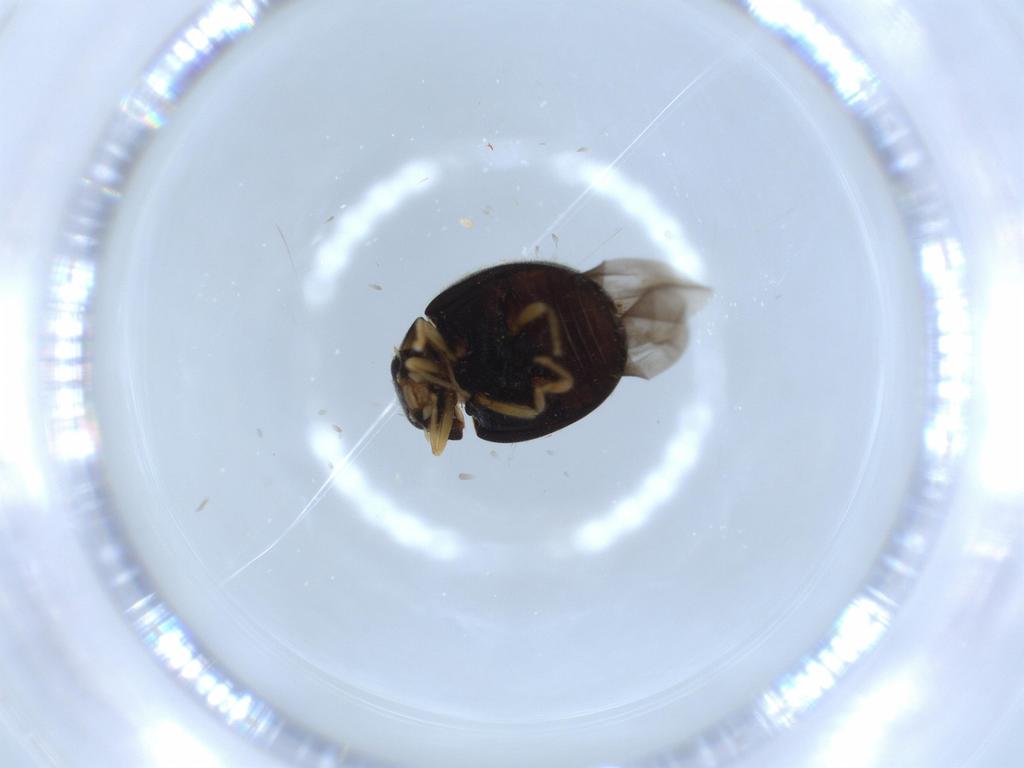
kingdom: Animalia
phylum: Arthropoda
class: Insecta
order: Coleoptera
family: Coccinellidae
